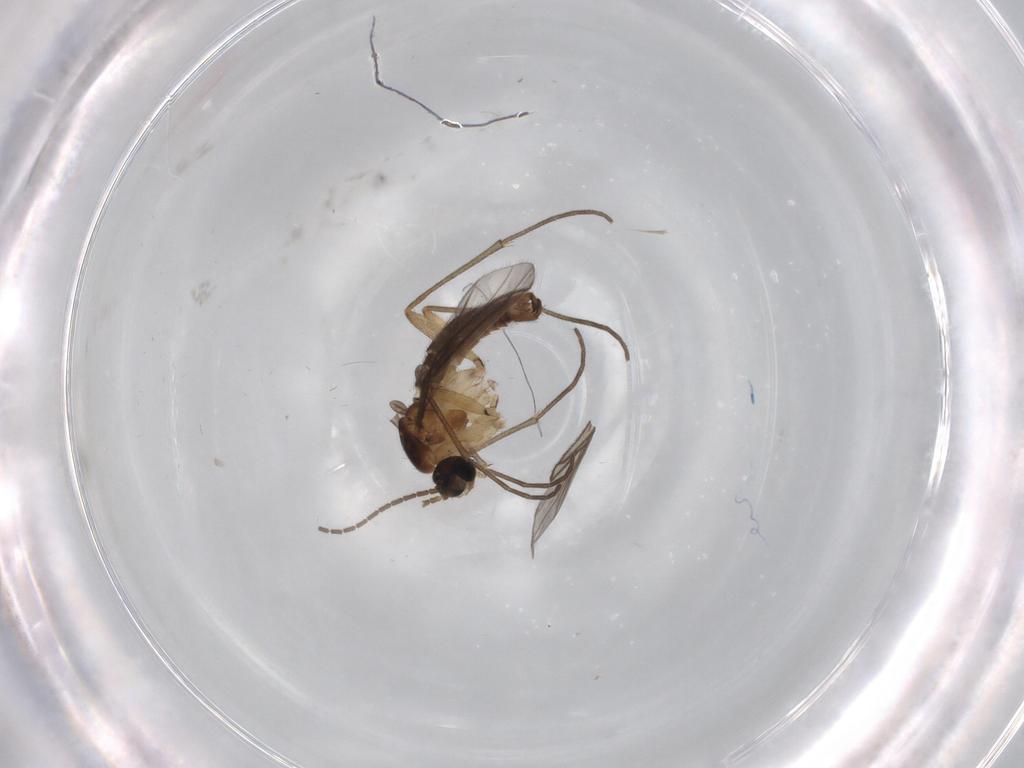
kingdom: Animalia
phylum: Arthropoda
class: Insecta
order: Diptera
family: Sciaridae
